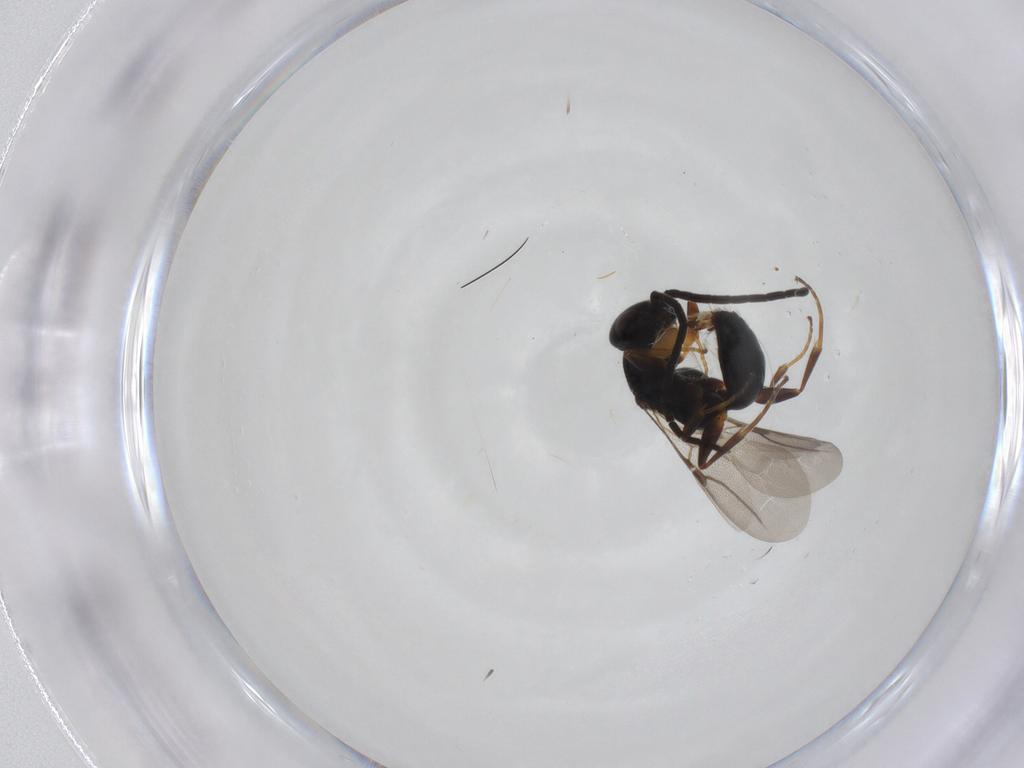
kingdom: Animalia
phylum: Arthropoda
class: Insecta
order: Hymenoptera
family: Bethylidae
